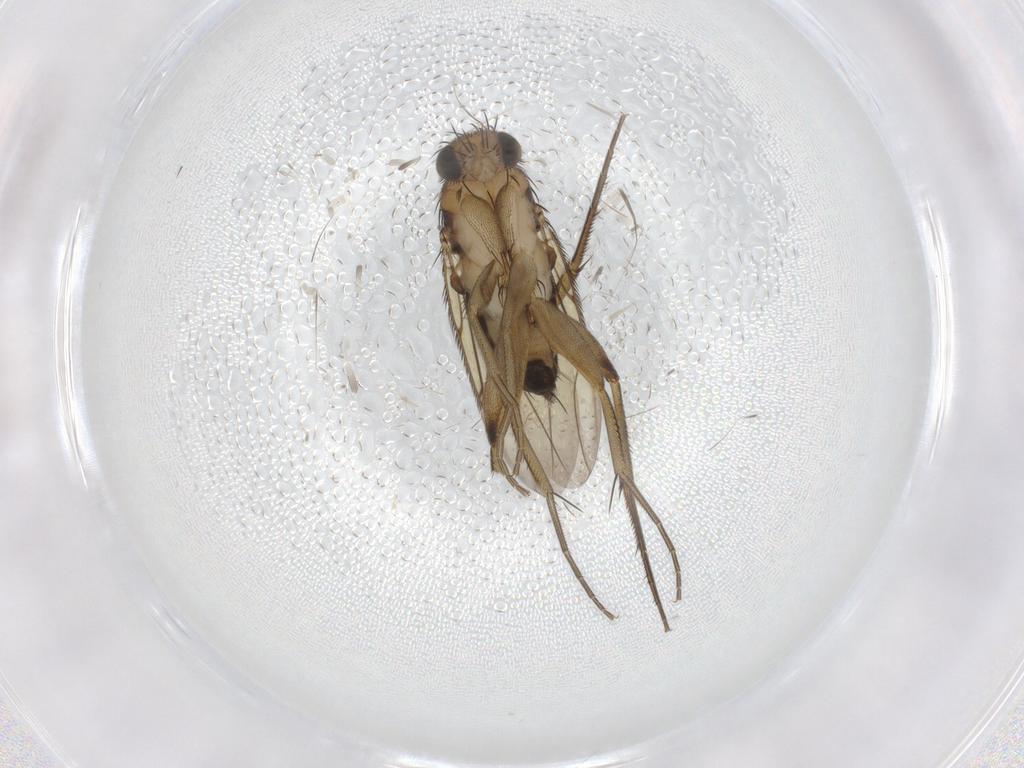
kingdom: Animalia
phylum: Arthropoda
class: Insecta
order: Diptera
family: Phoridae
